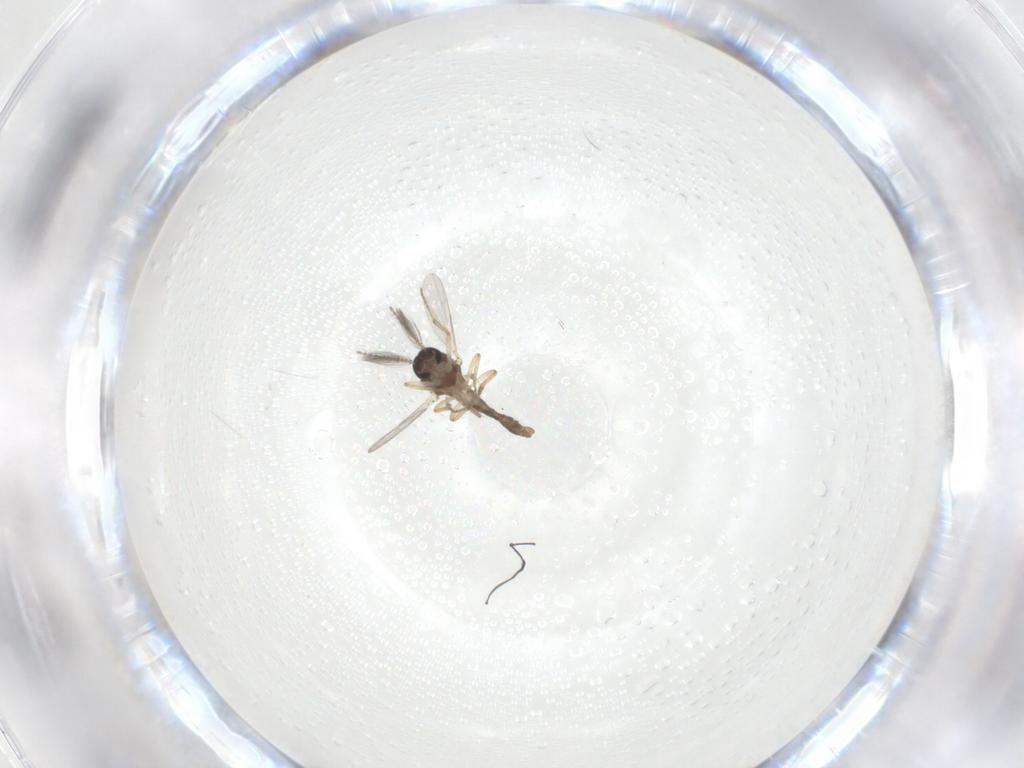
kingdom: Animalia
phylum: Arthropoda
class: Insecta
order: Diptera
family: Ceratopogonidae
